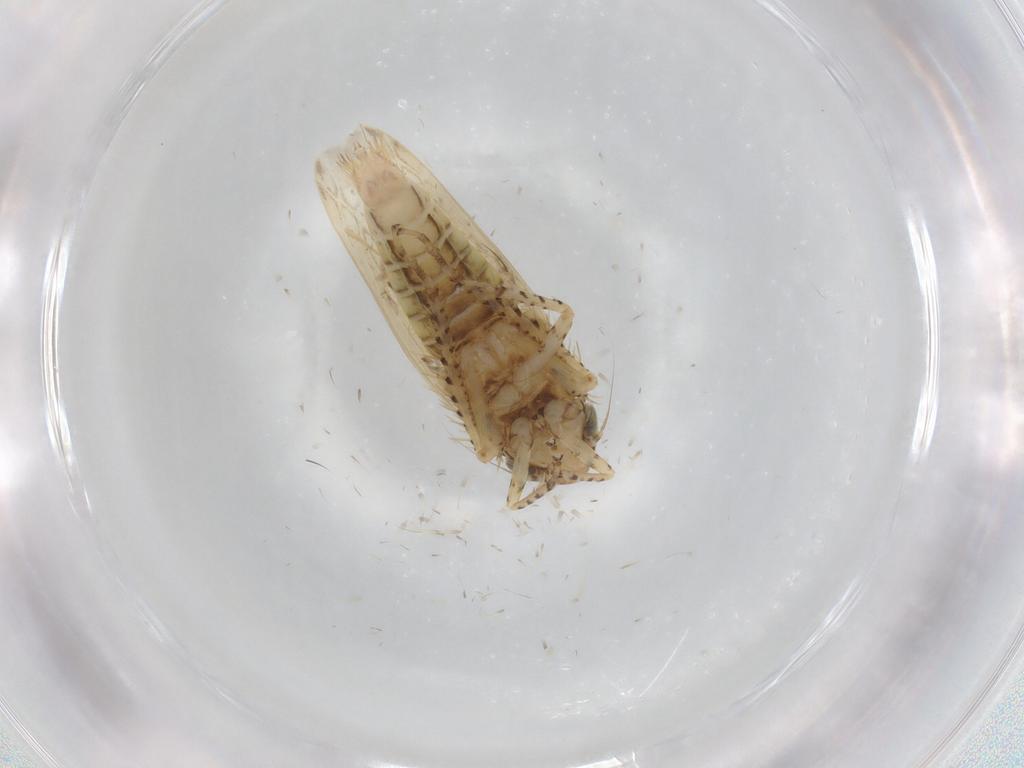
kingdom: Animalia
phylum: Arthropoda
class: Insecta
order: Hemiptera
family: Cicadellidae
